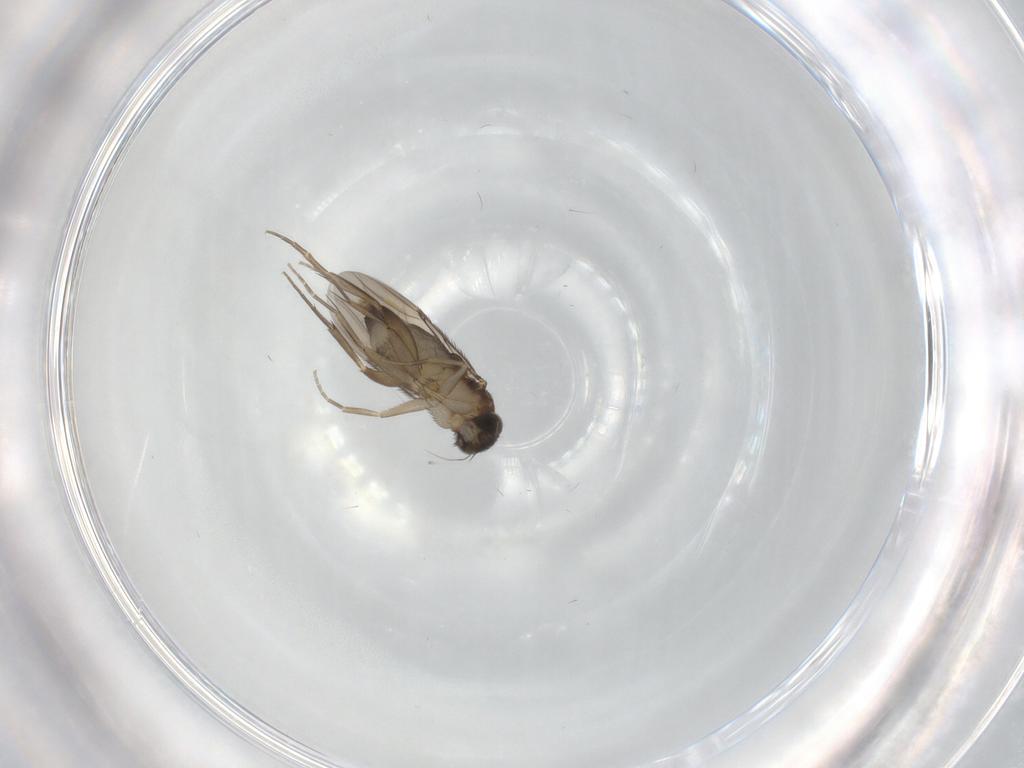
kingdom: Animalia
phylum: Arthropoda
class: Insecta
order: Diptera
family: Phoridae
